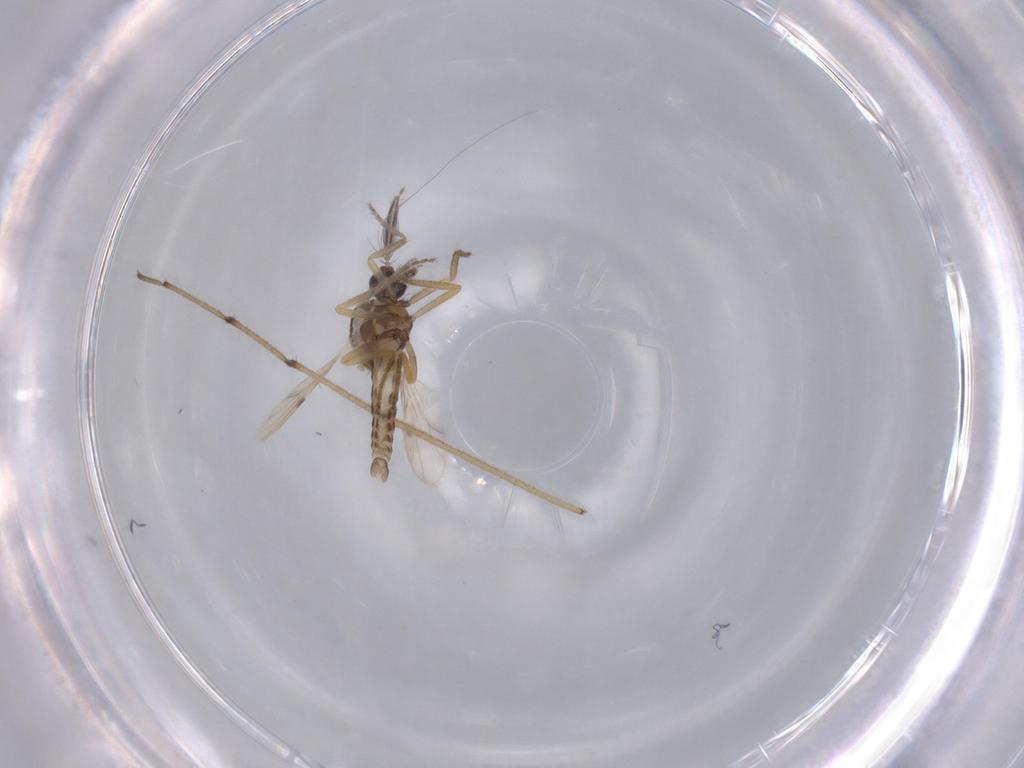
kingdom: Animalia
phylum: Arthropoda
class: Insecta
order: Diptera
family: Chironomidae
